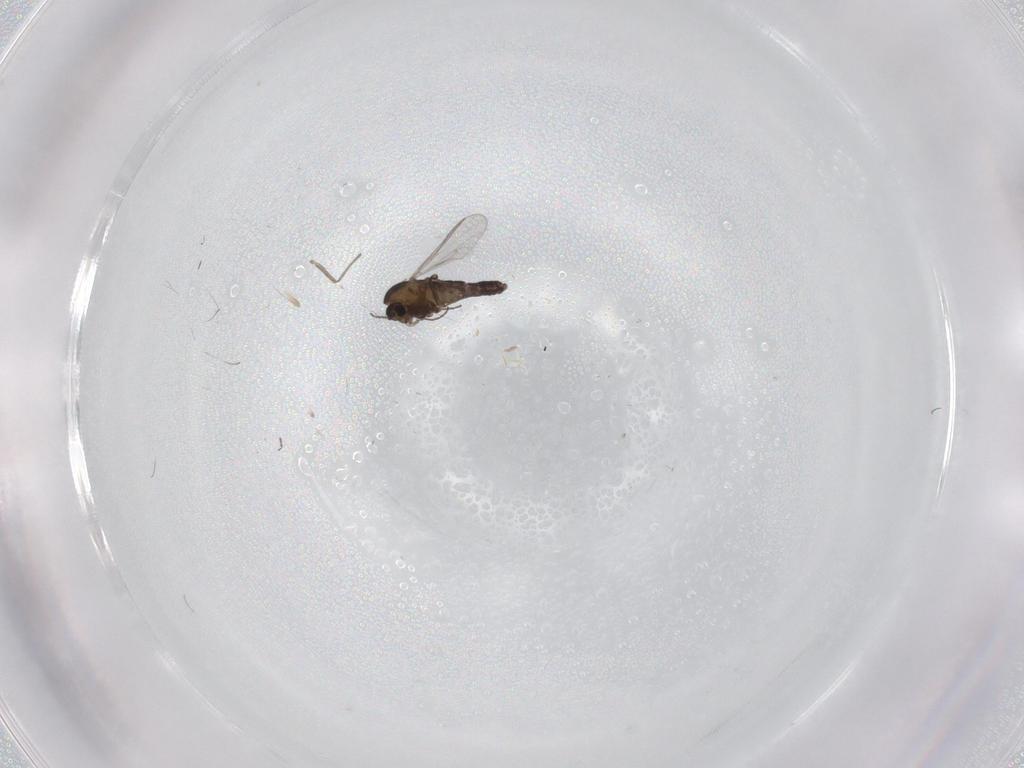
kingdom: Animalia
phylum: Arthropoda
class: Insecta
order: Diptera
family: Chironomidae
